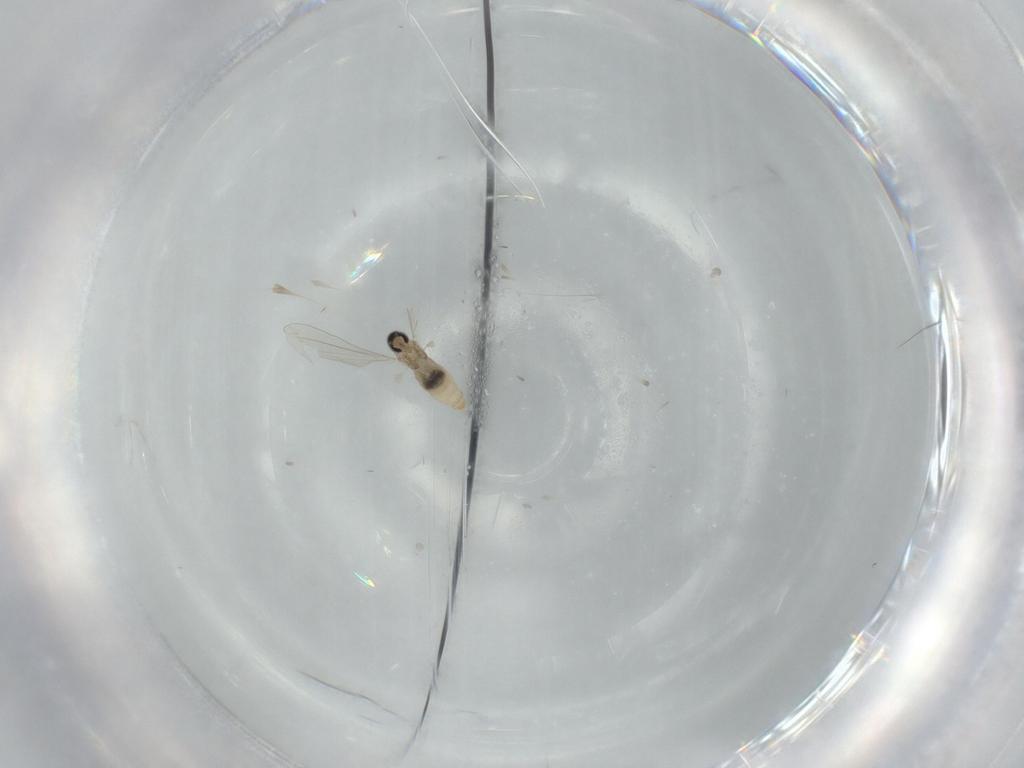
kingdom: Animalia
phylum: Arthropoda
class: Insecta
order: Diptera
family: Cecidomyiidae
